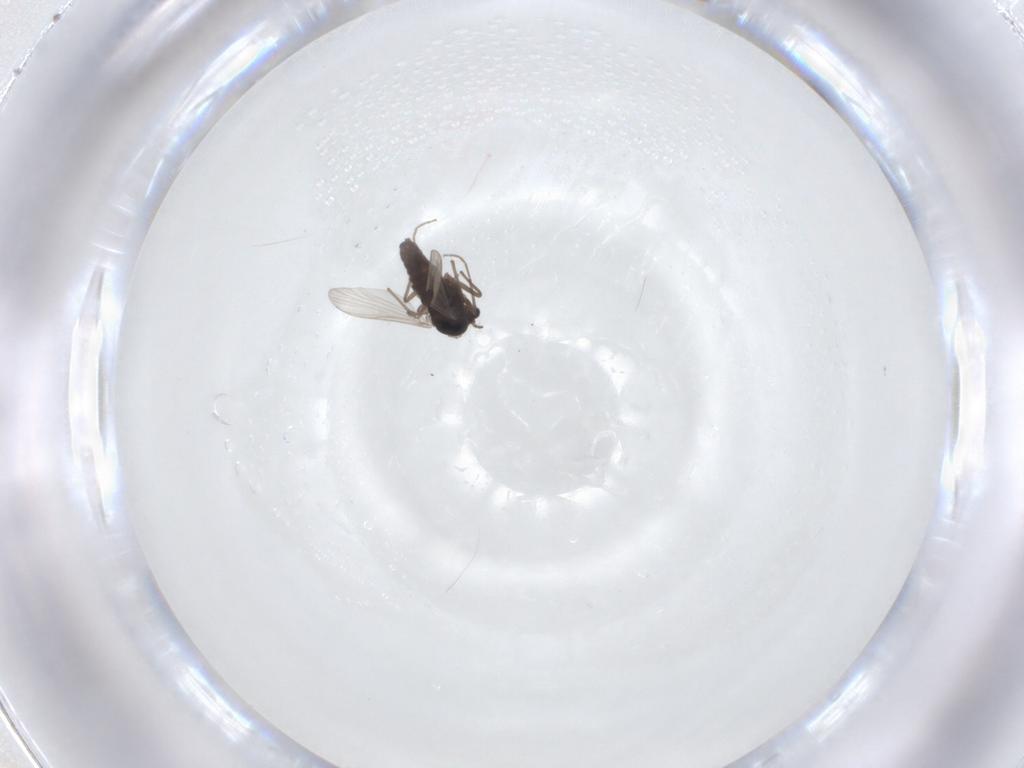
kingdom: Animalia
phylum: Arthropoda
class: Insecta
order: Diptera
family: Chironomidae
